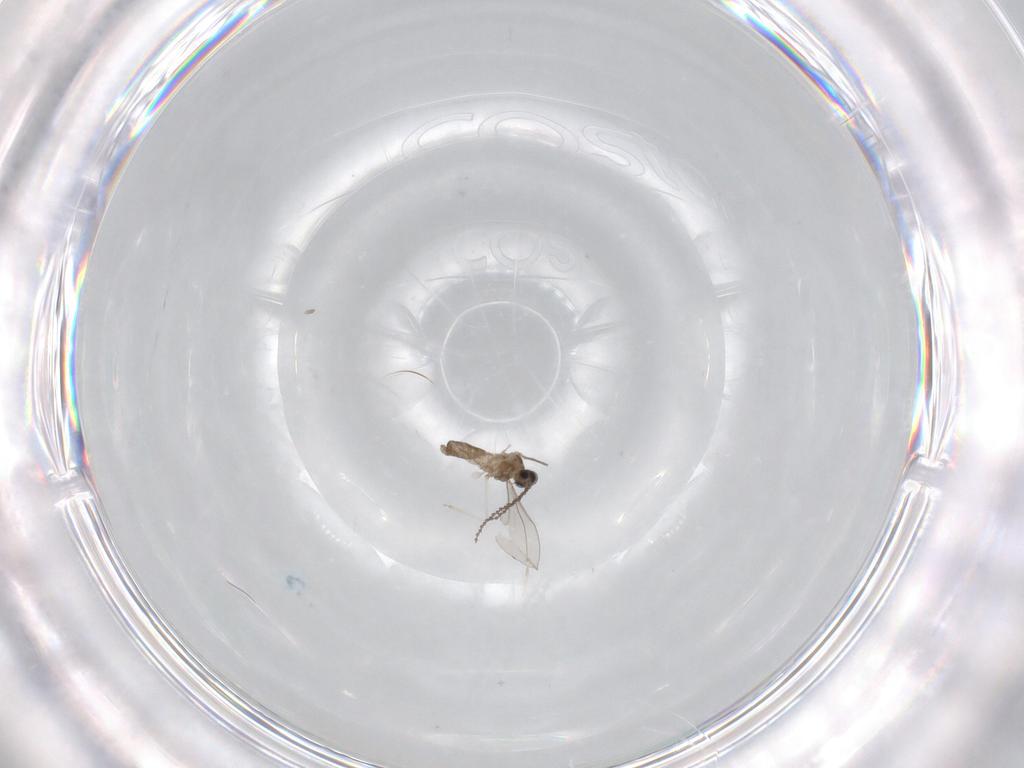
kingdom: Animalia
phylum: Arthropoda
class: Insecta
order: Diptera
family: Cecidomyiidae
